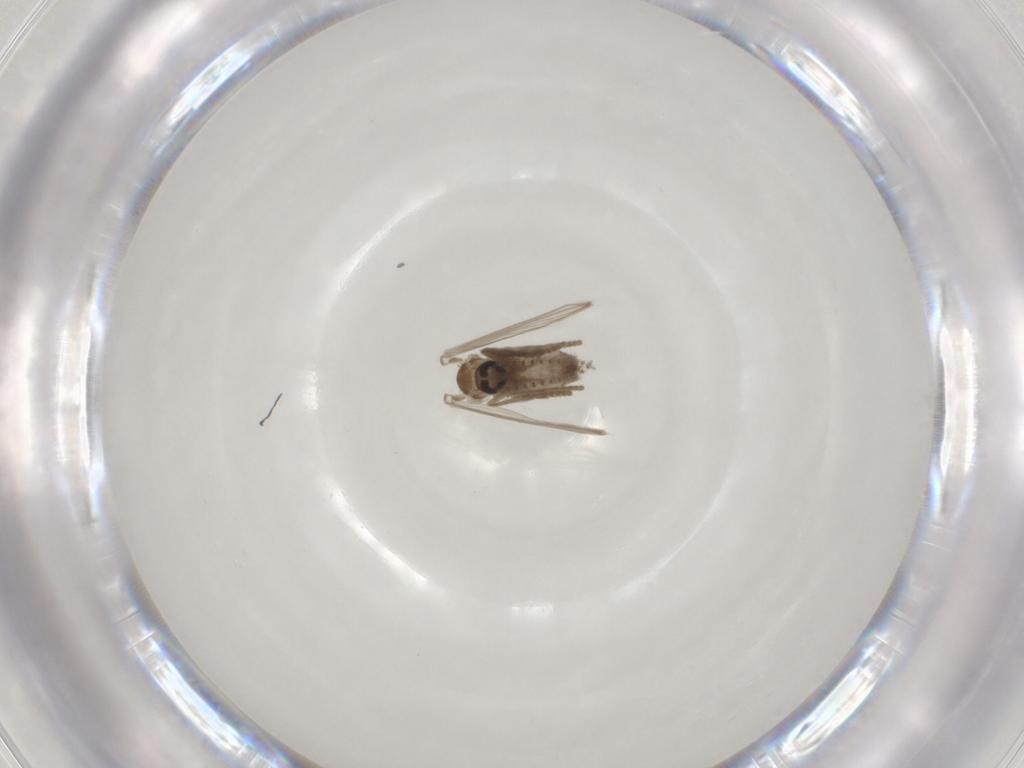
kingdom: Animalia
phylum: Arthropoda
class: Insecta
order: Diptera
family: Psychodidae
